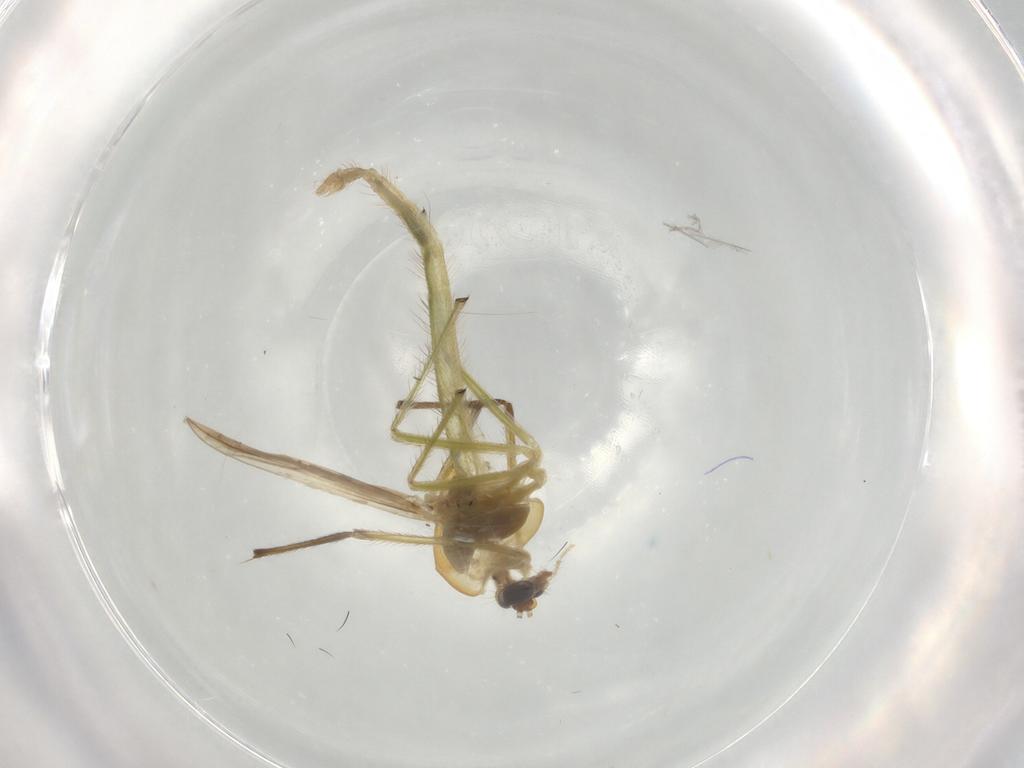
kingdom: Animalia
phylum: Arthropoda
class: Insecta
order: Diptera
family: Chironomidae
